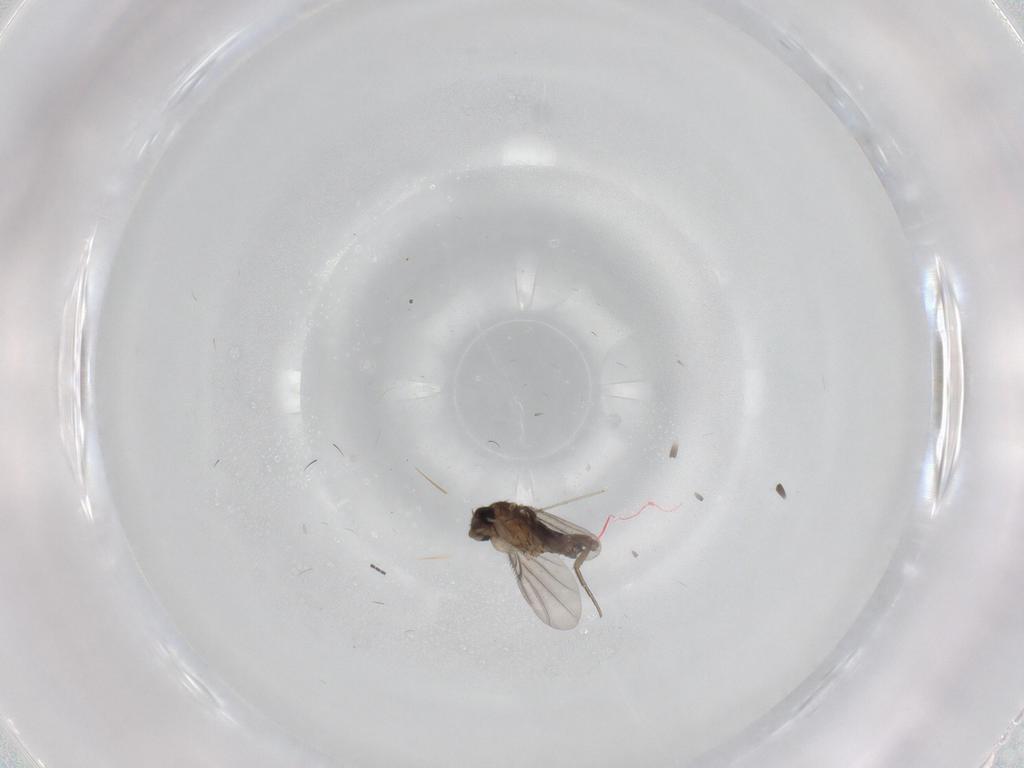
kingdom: Animalia
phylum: Arthropoda
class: Insecta
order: Diptera
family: Phoridae
